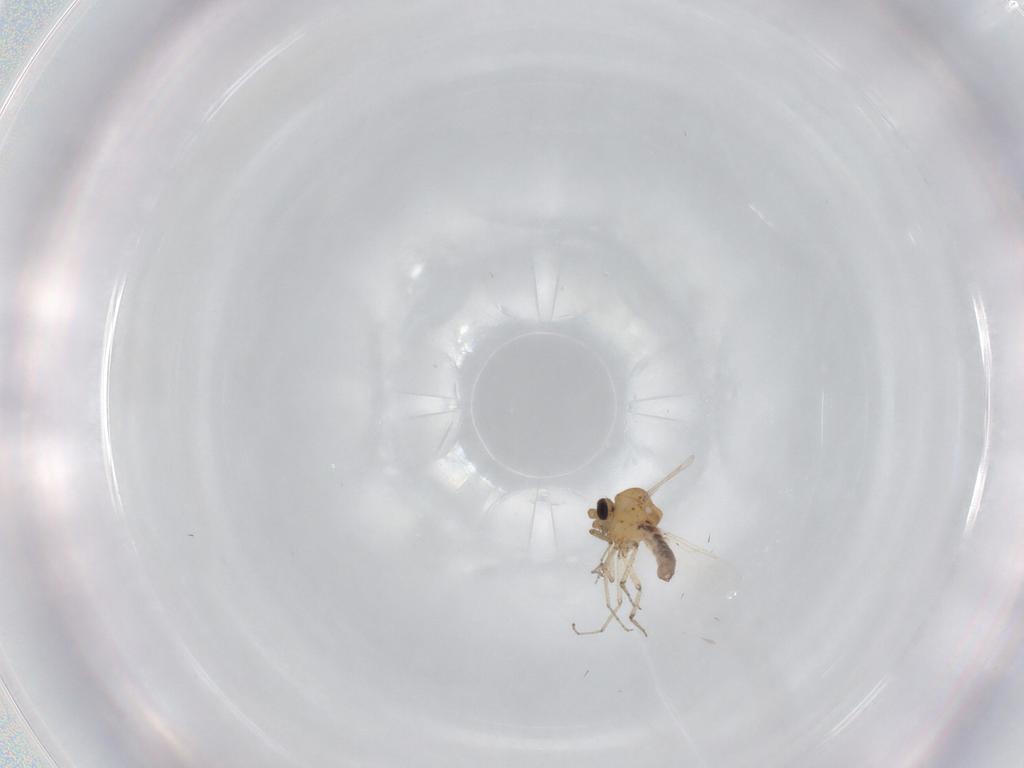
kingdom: Animalia
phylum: Arthropoda
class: Insecta
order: Diptera
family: Ceratopogonidae
